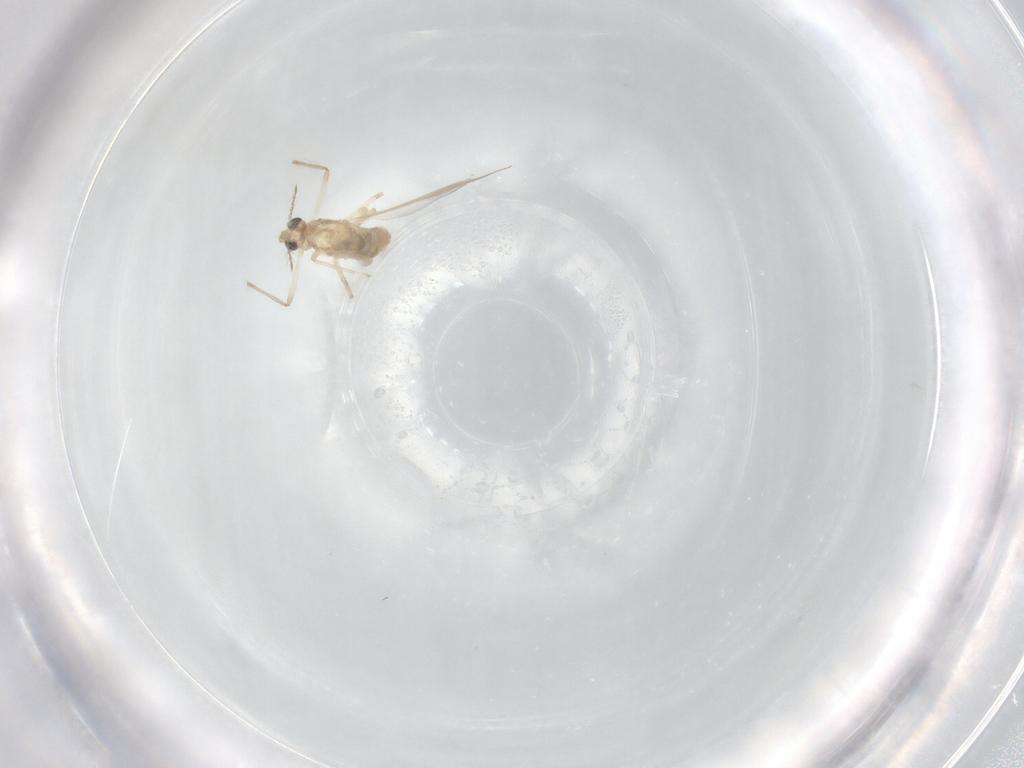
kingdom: Animalia
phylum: Arthropoda
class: Insecta
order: Diptera
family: Chironomidae
